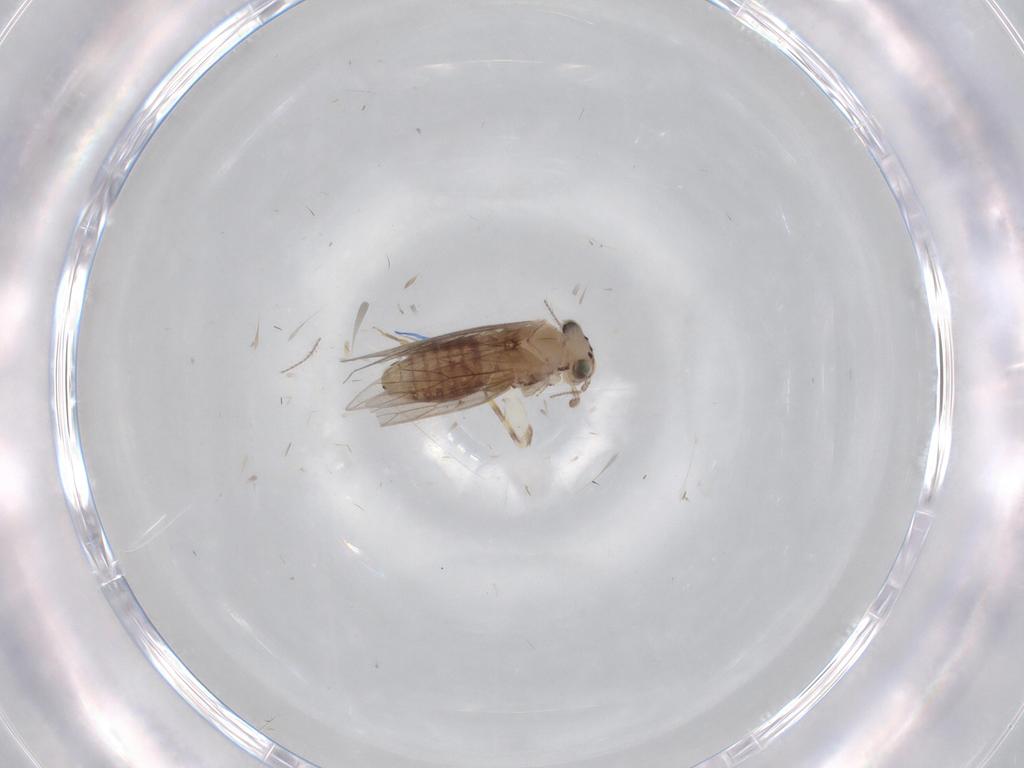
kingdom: Animalia
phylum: Arthropoda
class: Insecta
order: Psocodea
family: Lepidopsocidae
